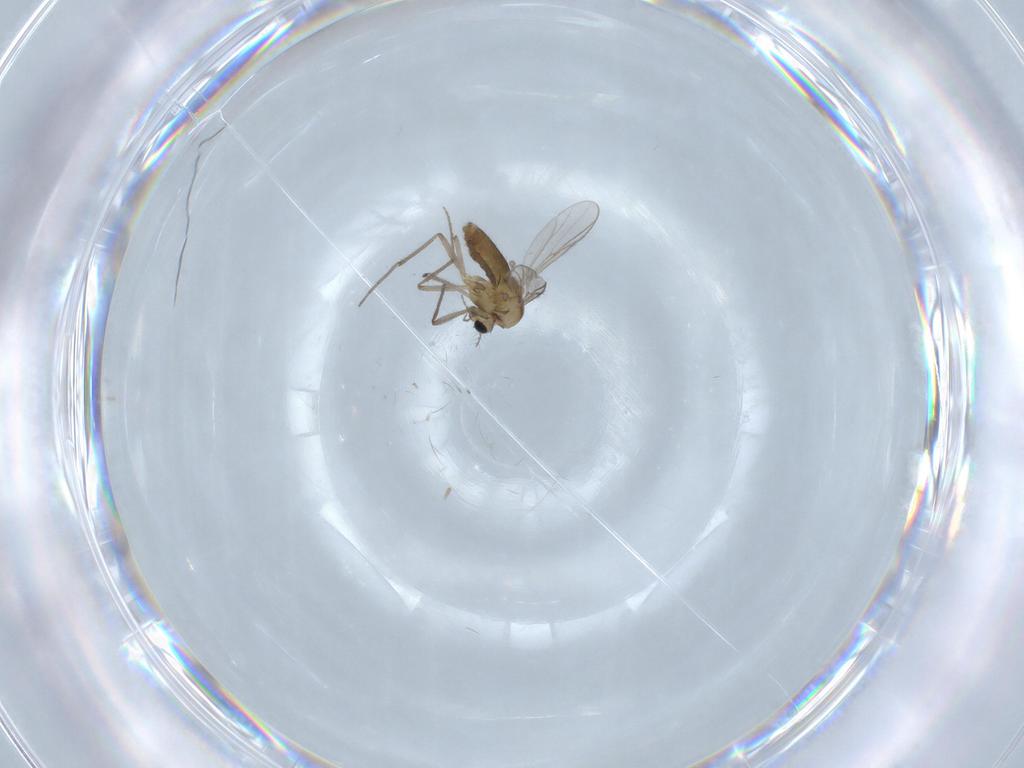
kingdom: Animalia
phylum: Arthropoda
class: Insecta
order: Diptera
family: Chironomidae
